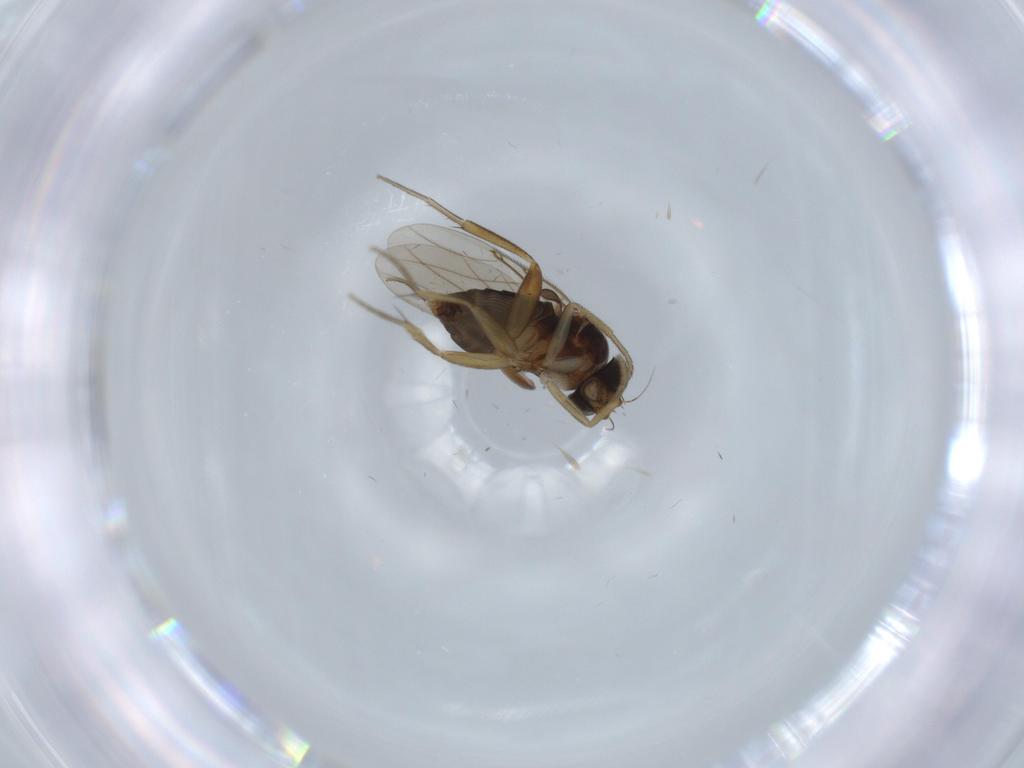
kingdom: Animalia
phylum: Arthropoda
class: Insecta
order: Diptera
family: Phoridae
